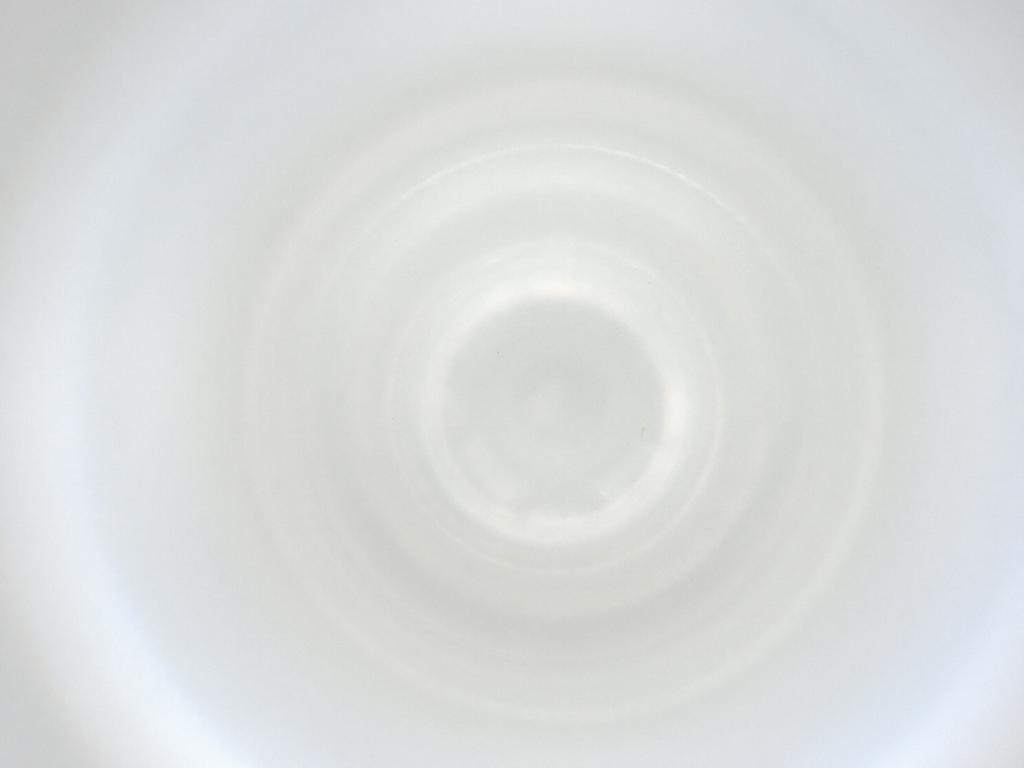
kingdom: Animalia
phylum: Arthropoda
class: Insecta
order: Diptera
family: Cecidomyiidae
